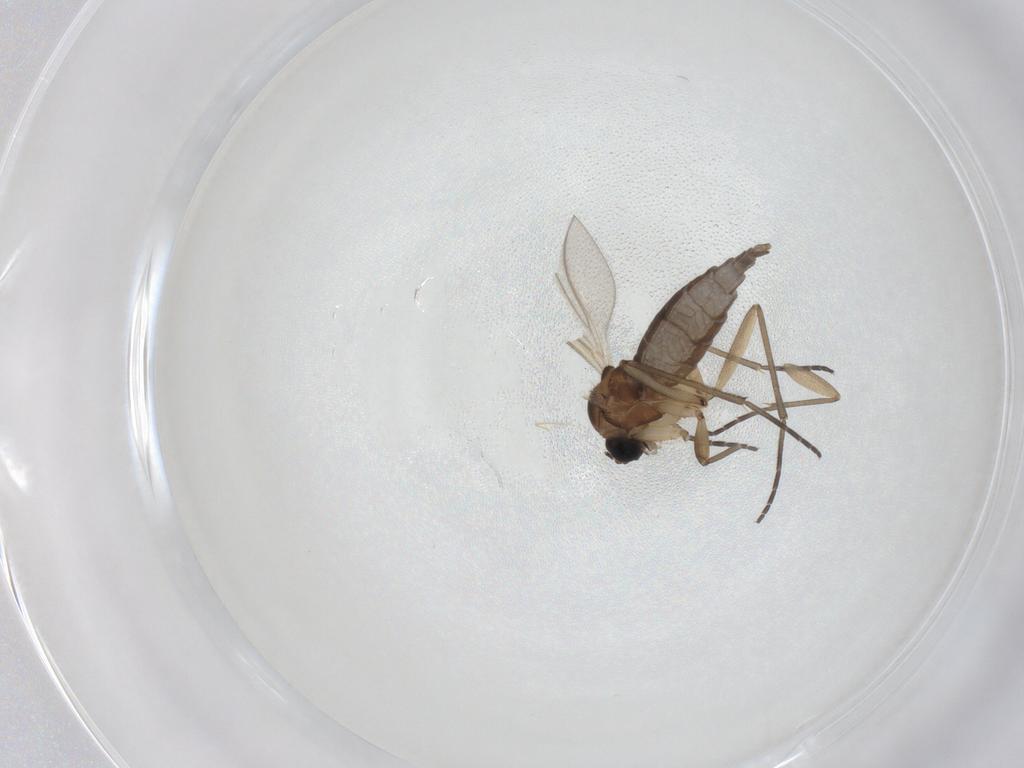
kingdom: Animalia
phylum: Arthropoda
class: Insecta
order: Diptera
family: Sciaridae
